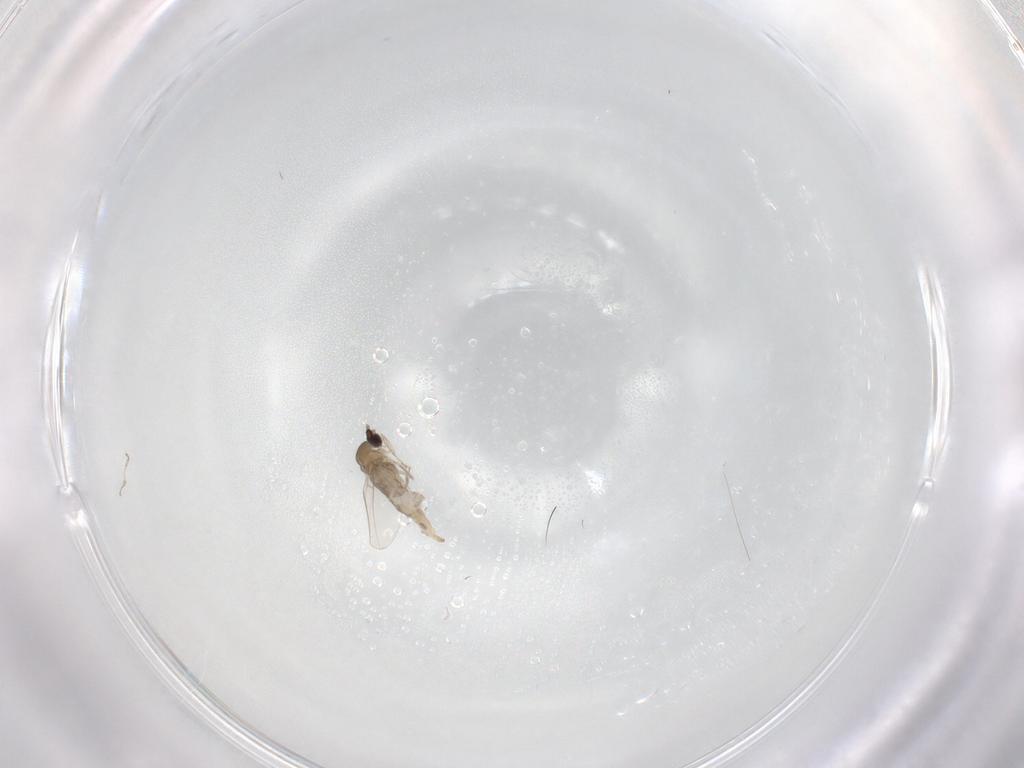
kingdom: Animalia
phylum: Arthropoda
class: Insecta
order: Diptera
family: Cecidomyiidae
